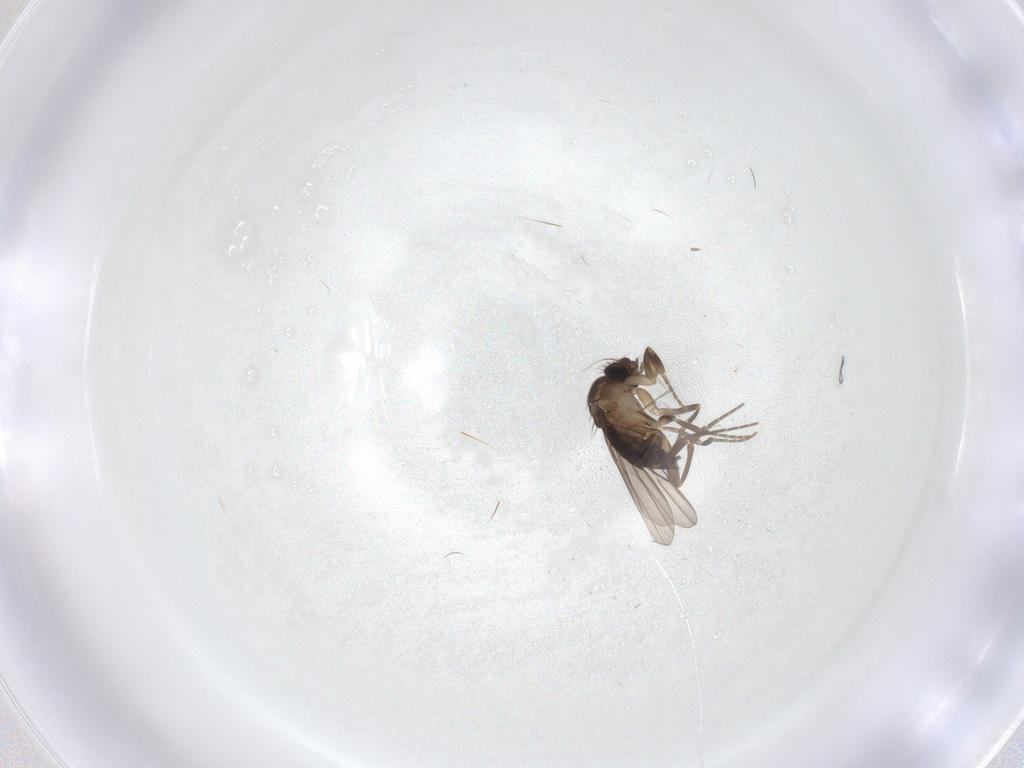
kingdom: Animalia
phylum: Arthropoda
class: Insecta
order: Diptera
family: Phoridae
